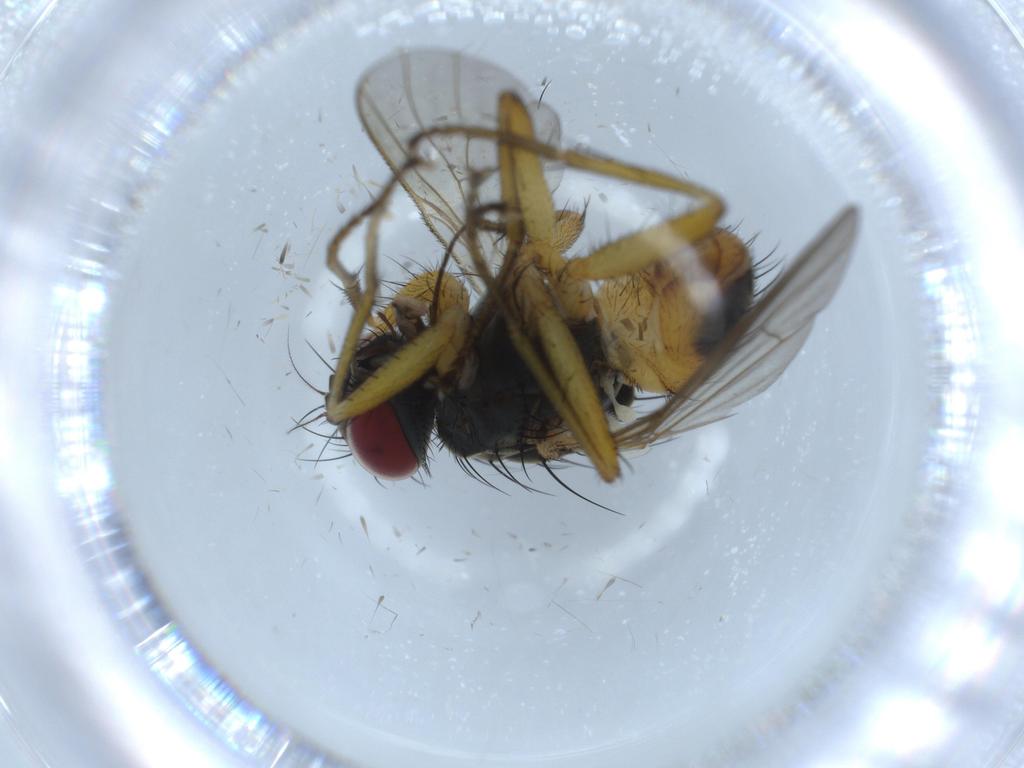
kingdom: Animalia
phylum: Arthropoda
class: Insecta
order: Diptera
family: Muscidae
